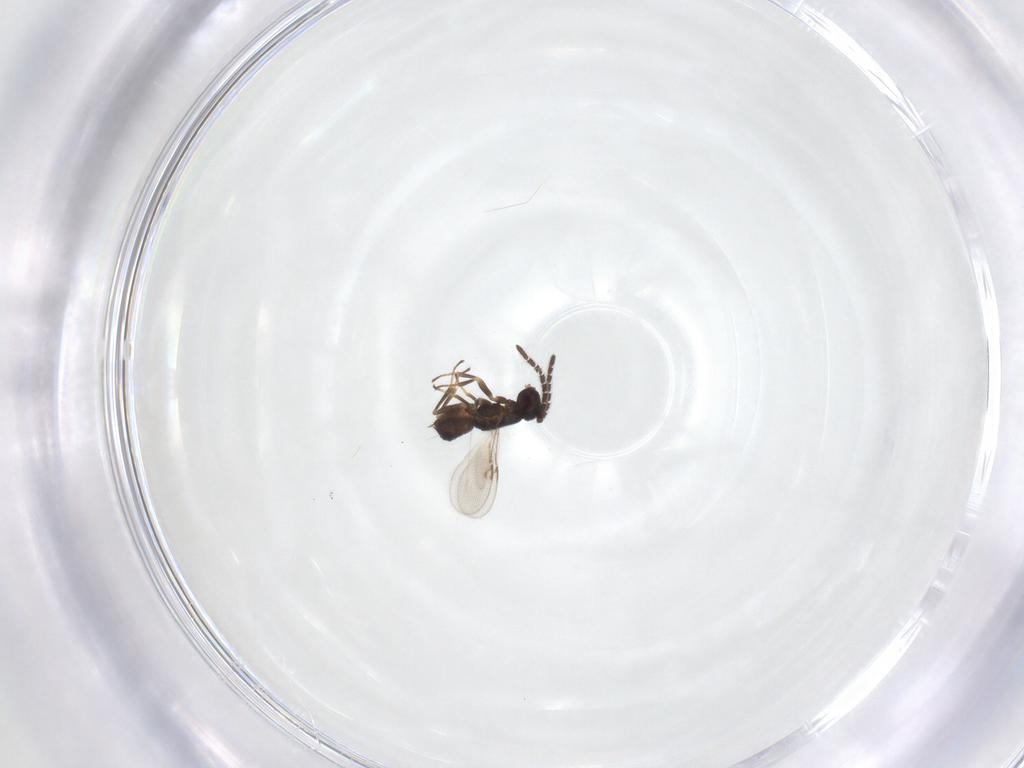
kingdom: Animalia
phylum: Arthropoda
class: Insecta
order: Hymenoptera
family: Encyrtidae
